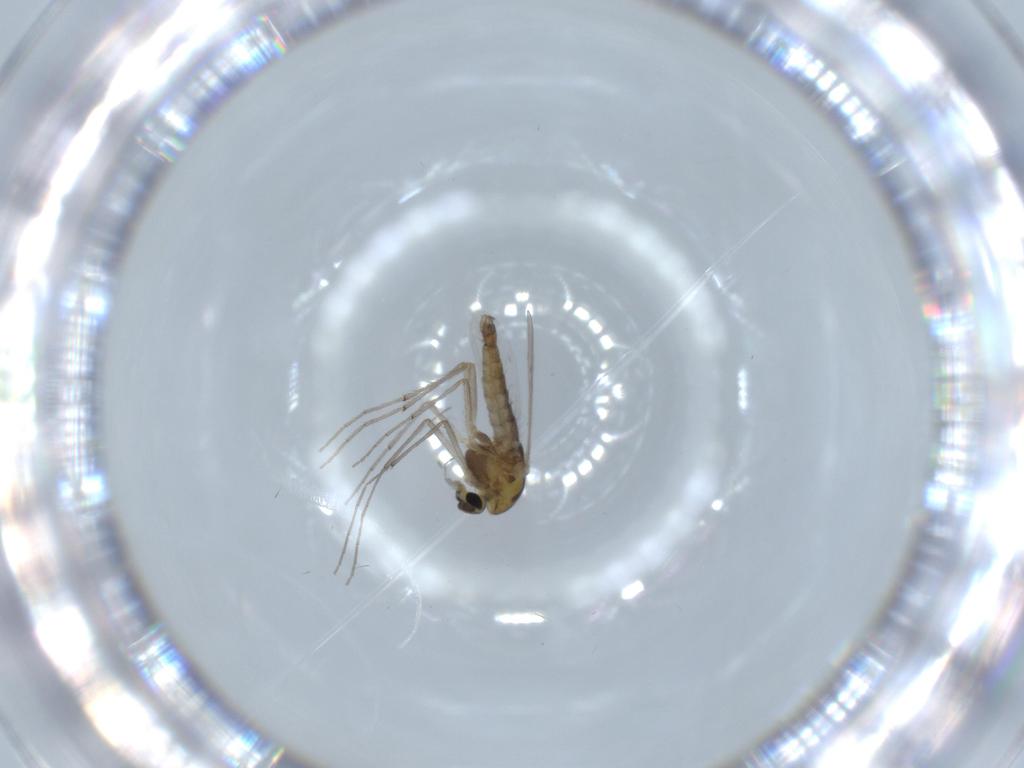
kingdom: Animalia
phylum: Arthropoda
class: Insecta
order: Diptera
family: Chironomidae
